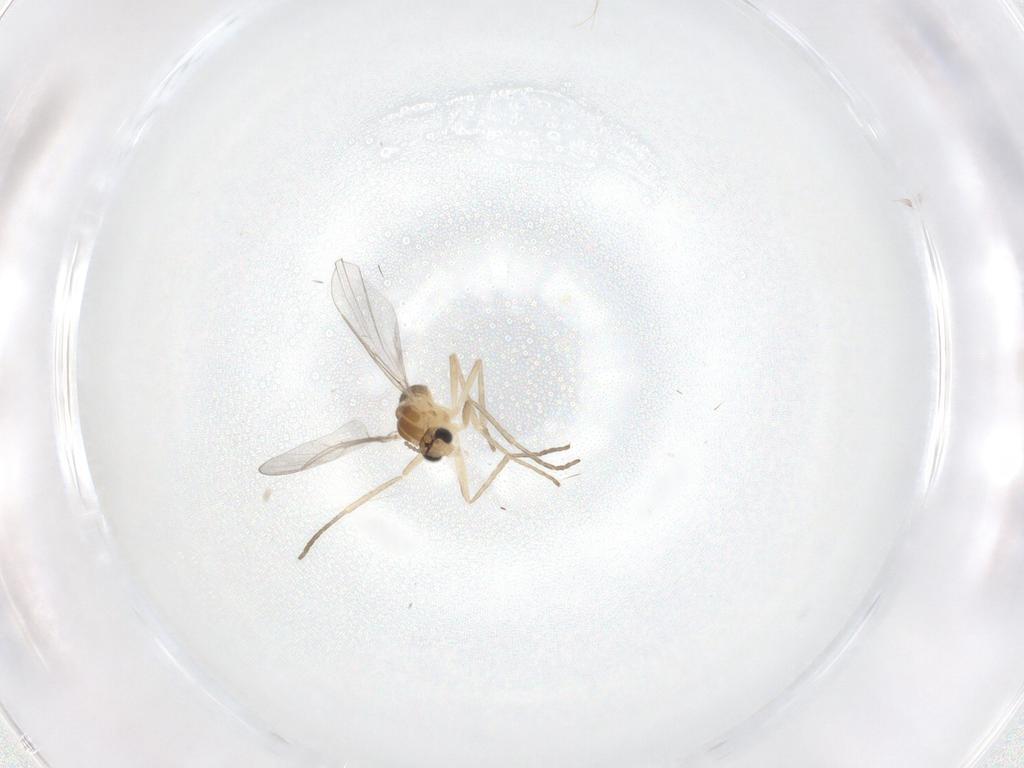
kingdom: Animalia
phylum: Arthropoda
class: Insecta
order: Diptera
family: Cecidomyiidae
